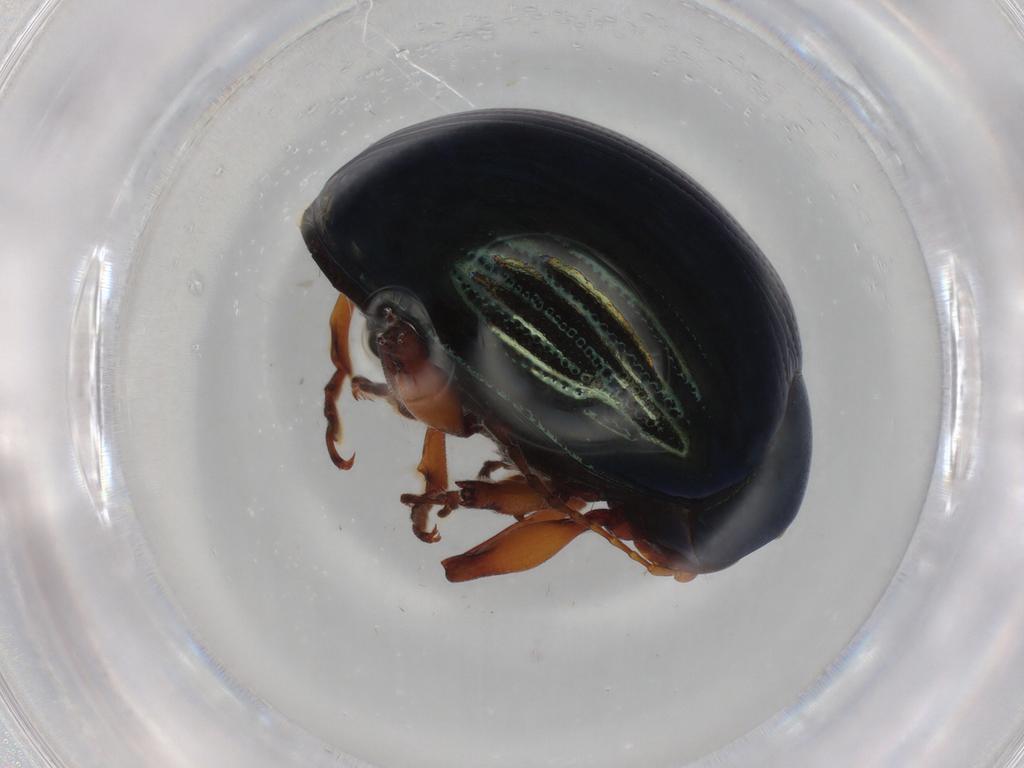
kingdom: Animalia
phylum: Arthropoda
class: Insecta
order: Coleoptera
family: Chrysomelidae
